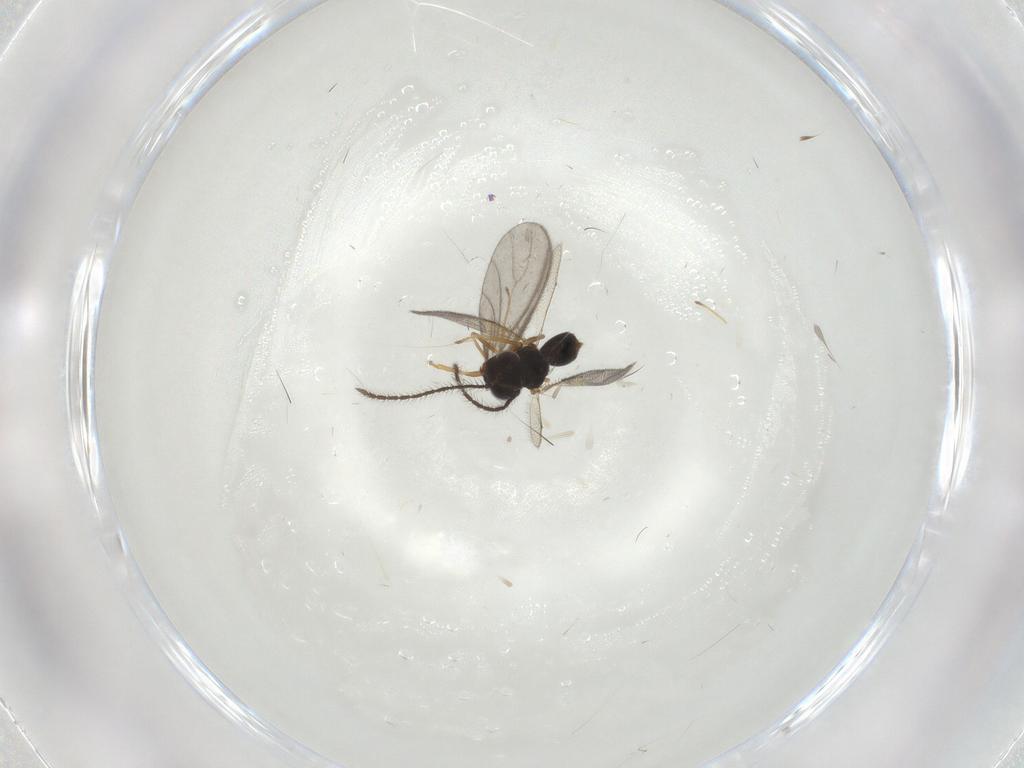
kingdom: Animalia
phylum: Arthropoda
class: Insecta
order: Hymenoptera
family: Diparidae
